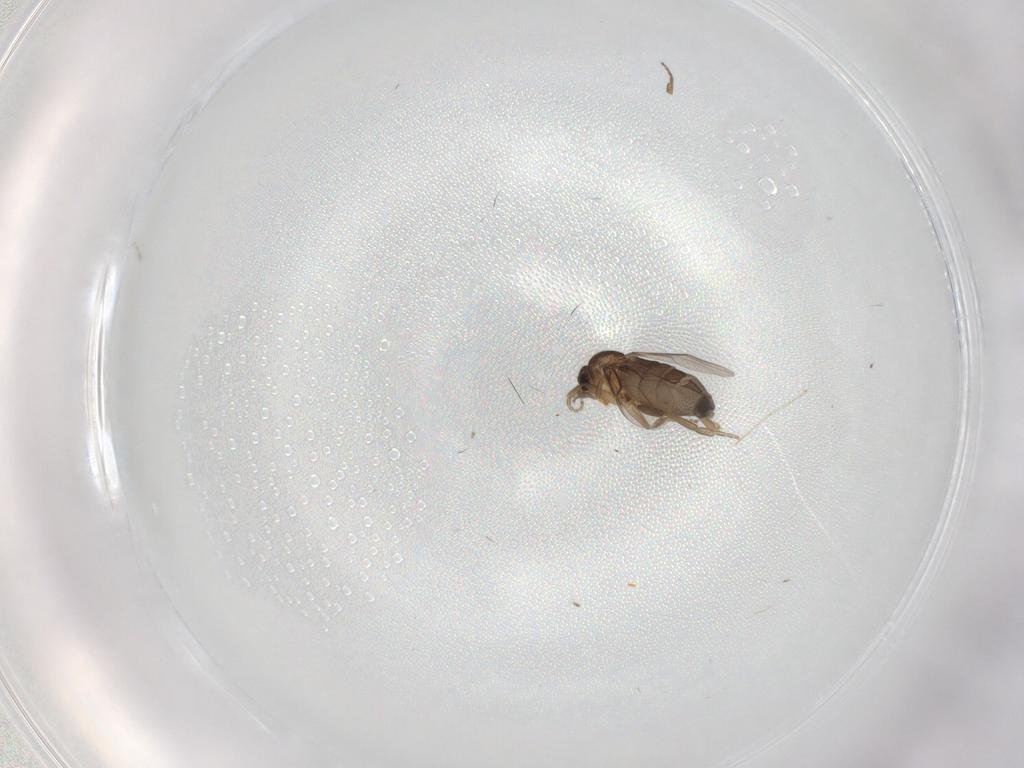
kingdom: Animalia
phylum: Arthropoda
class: Insecta
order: Diptera
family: Phoridae
